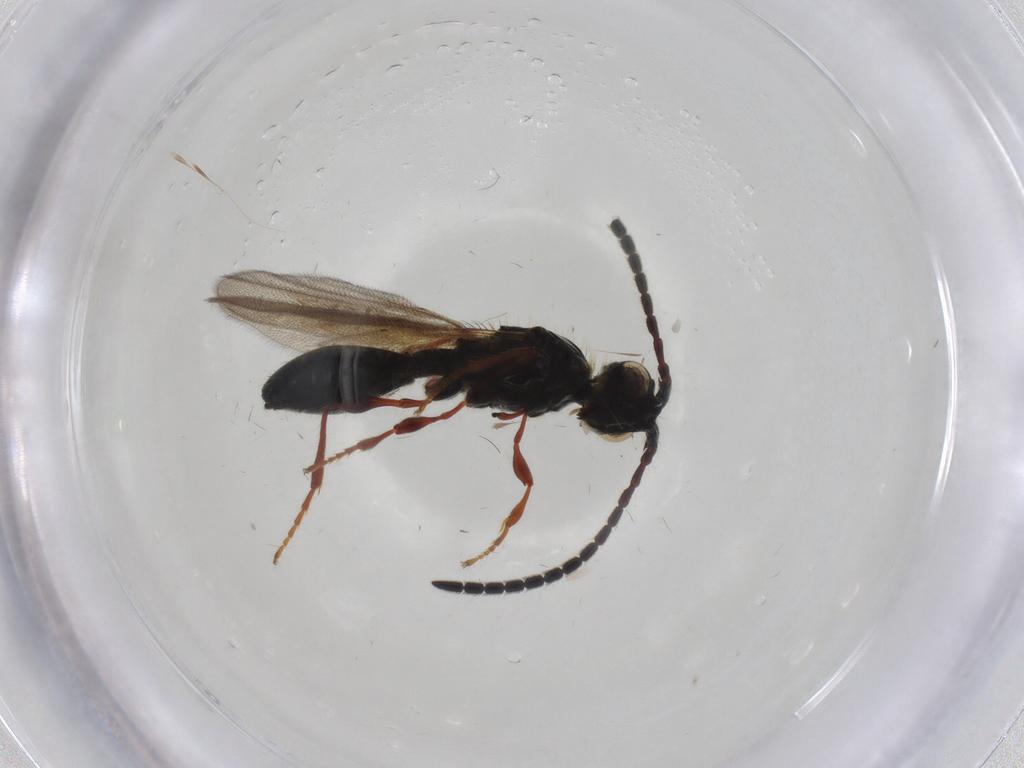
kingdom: Animalia
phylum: Arthropoda
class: Insecta
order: Hymenoptera
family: Diapriidae
